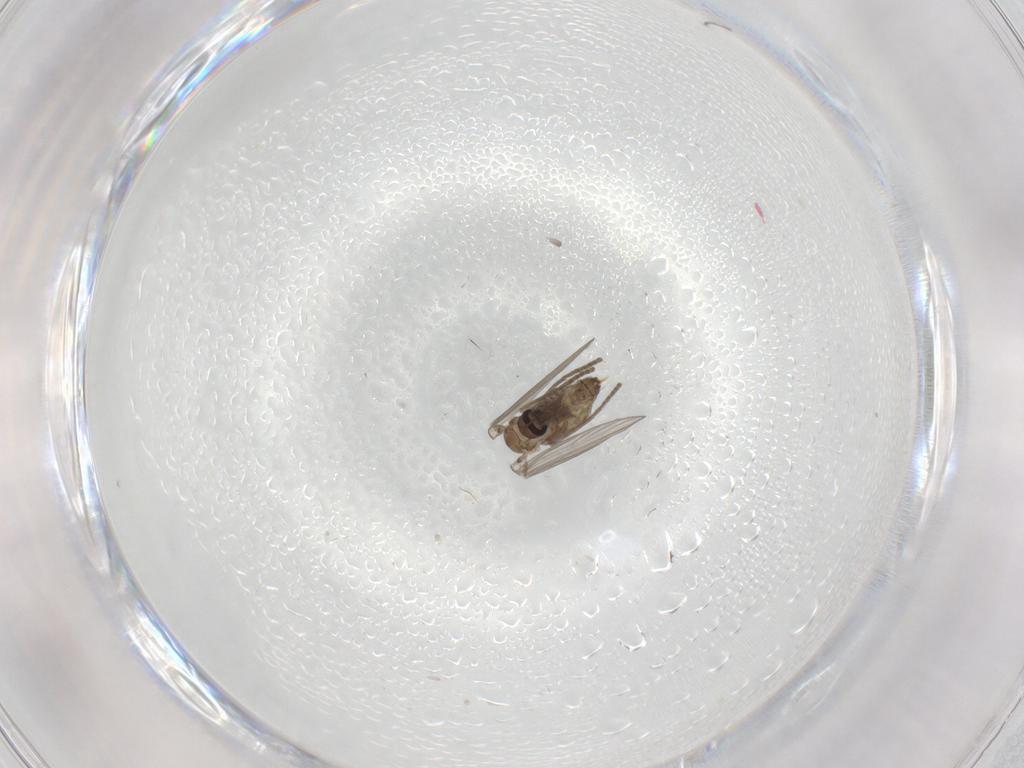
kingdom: Animalia
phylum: Arthropoda
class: Insecta
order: Diptera
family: Psychodidae
